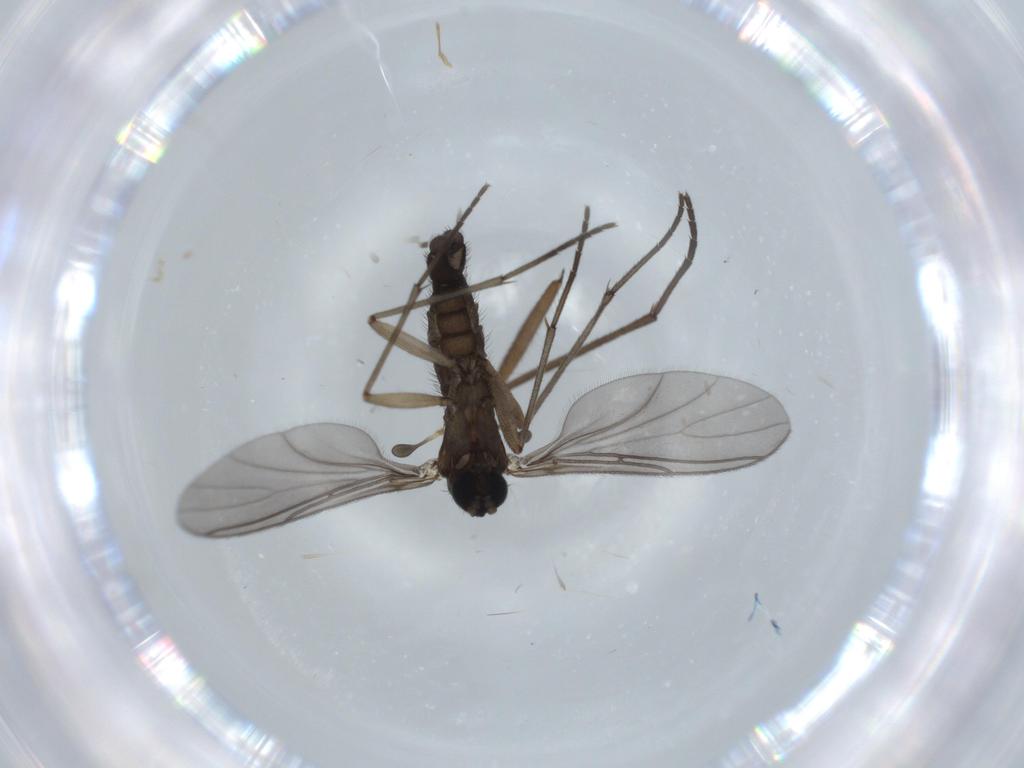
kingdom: Animalia
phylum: Arthropoda
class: Insecta
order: Diptera
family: Sciaridae
